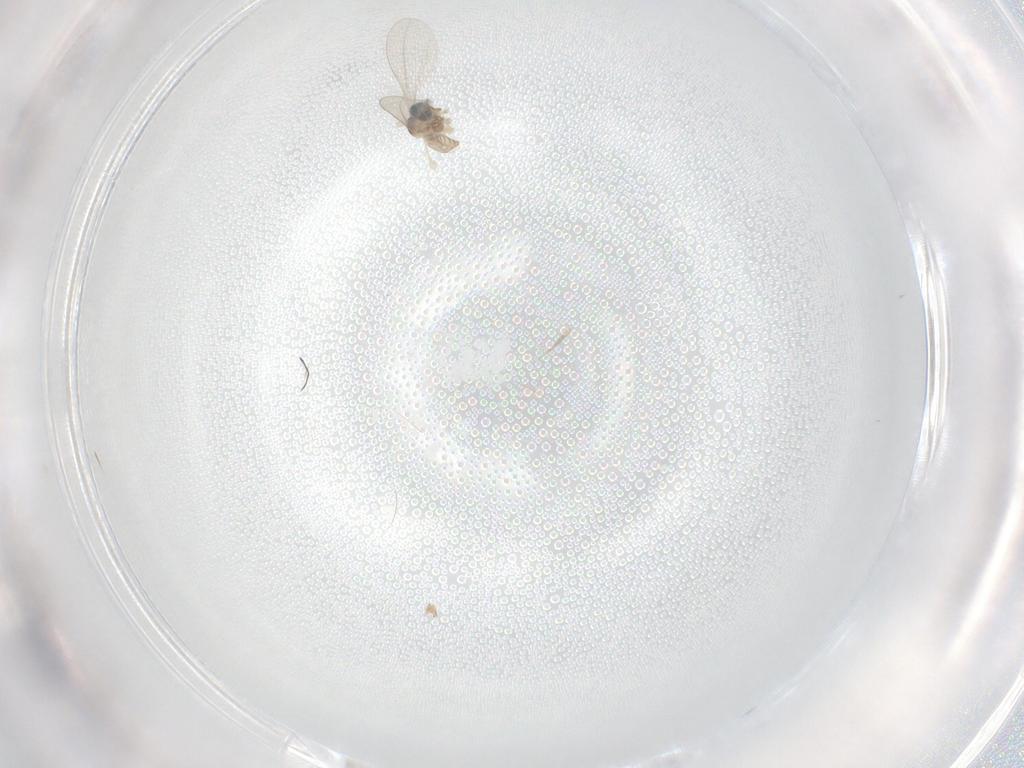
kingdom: Animalia
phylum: Arthropoda
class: Insecta
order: Diptera
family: Cecidomyiidae
